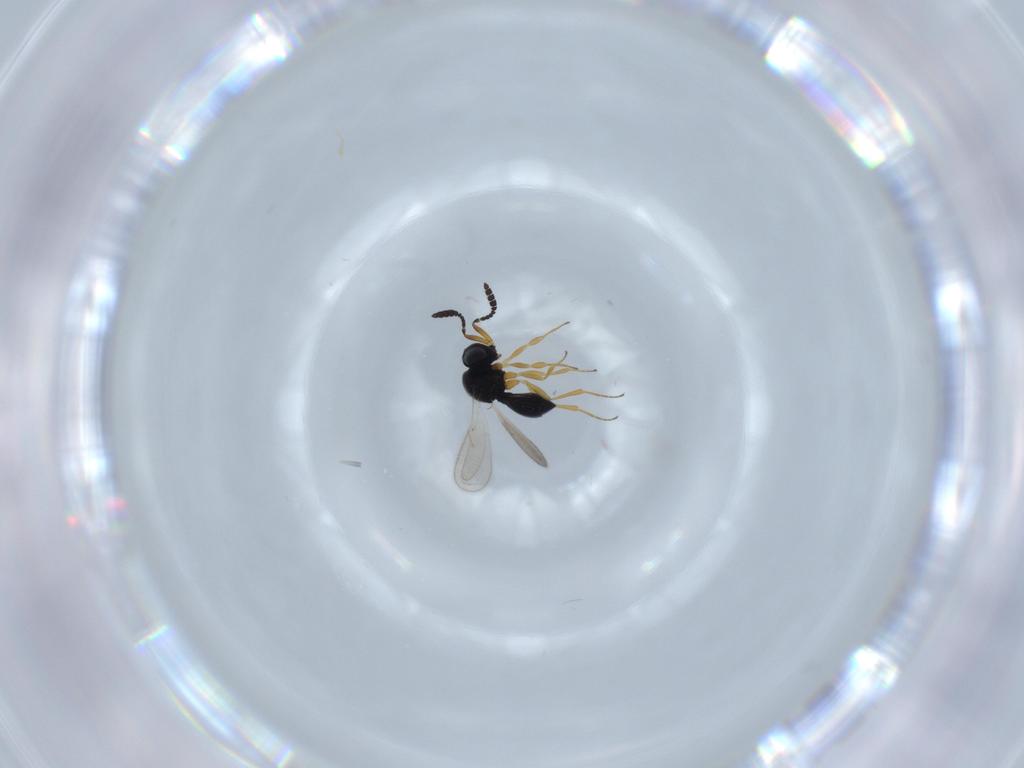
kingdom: Animalia
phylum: Arthropoda
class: Insecta
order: Hymenoptera
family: Scelionidae
